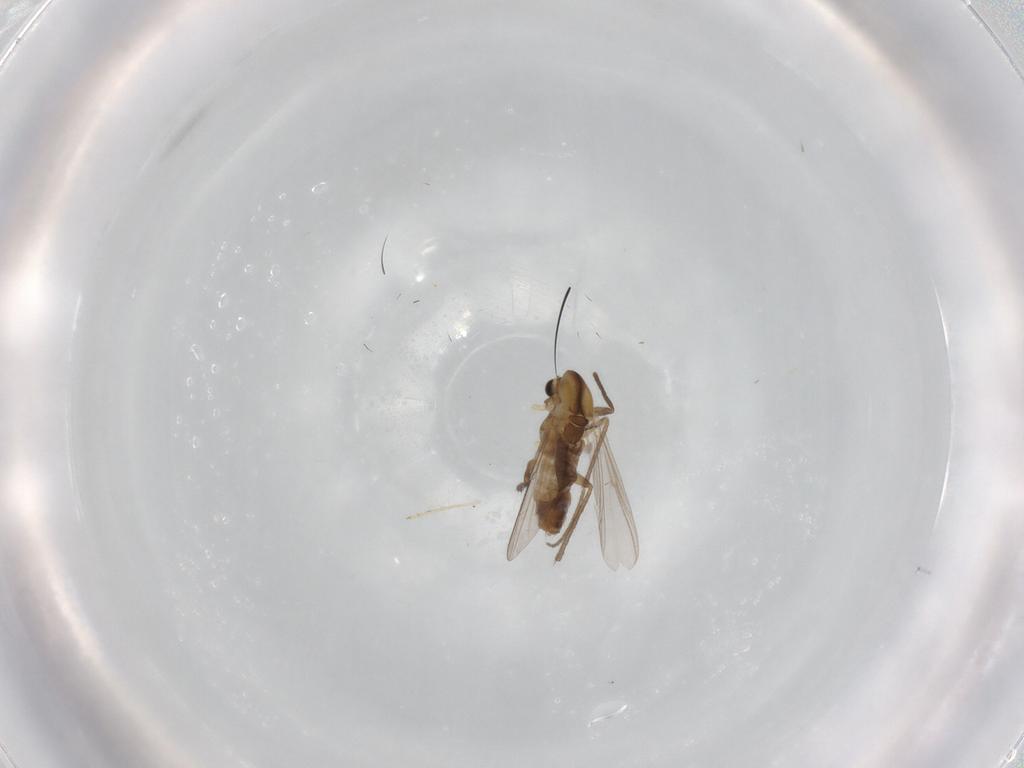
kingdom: Animalia
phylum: Arthropoda
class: Insecta
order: Diptera
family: Chironomidae
